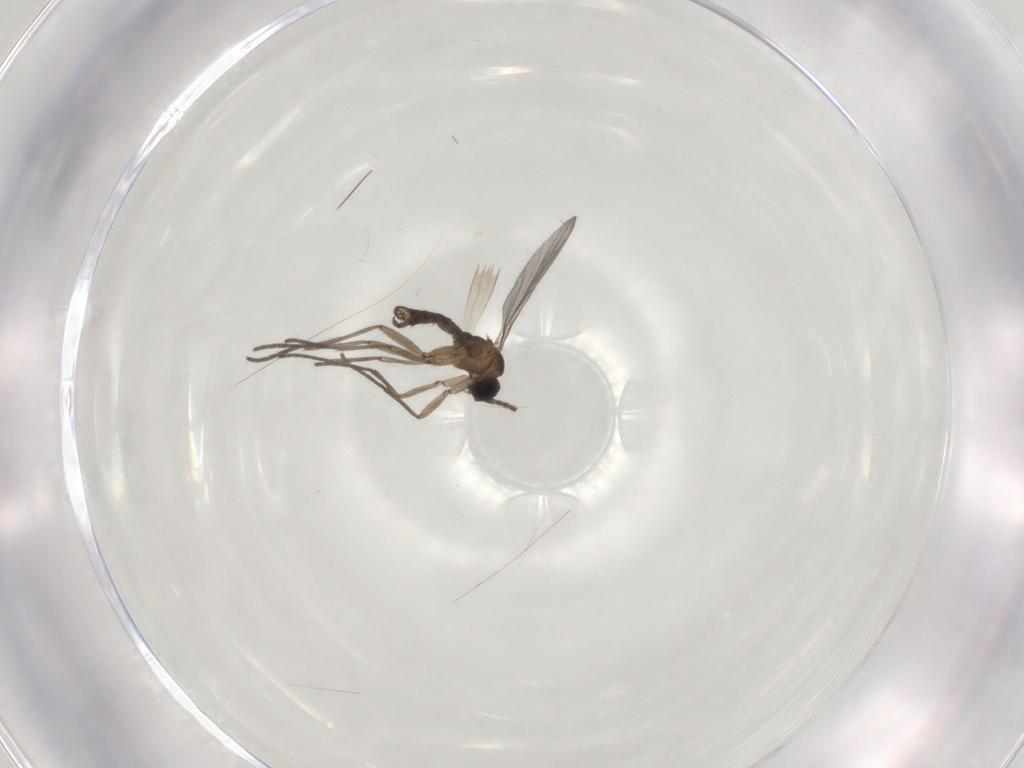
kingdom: Animalia
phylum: Arthropoda
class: Insecta
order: Diptera
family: Sciaridae
